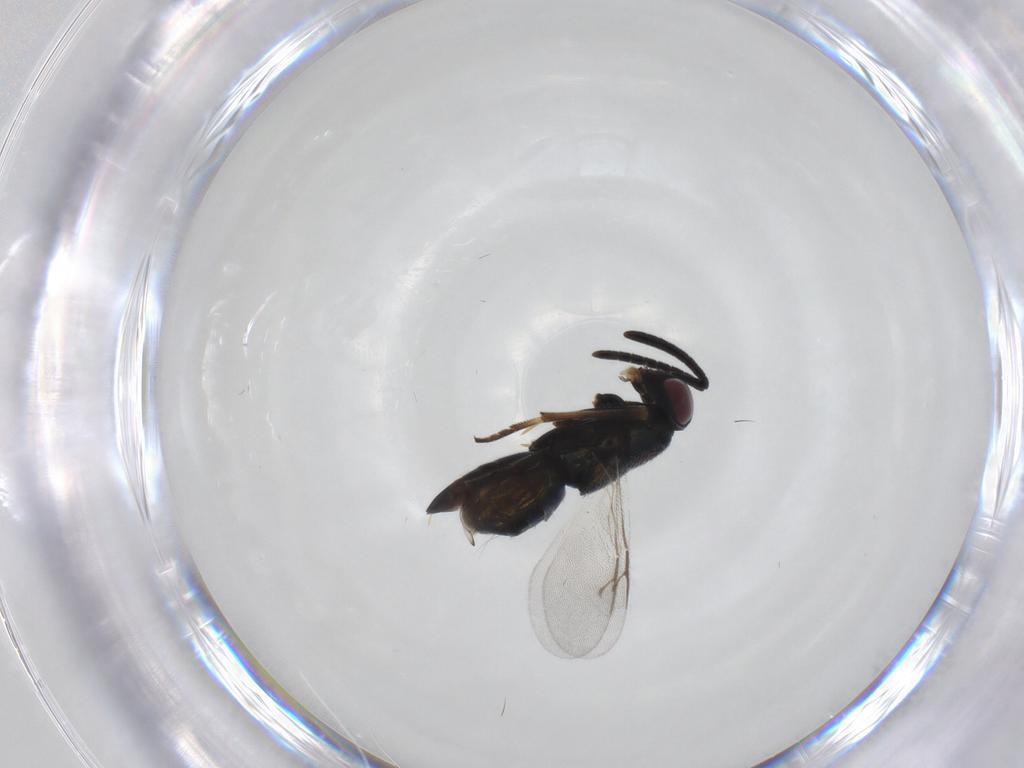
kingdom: Animalia
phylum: Arthropoda
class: Insecta
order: Hymenoptera
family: Encyrtidae
